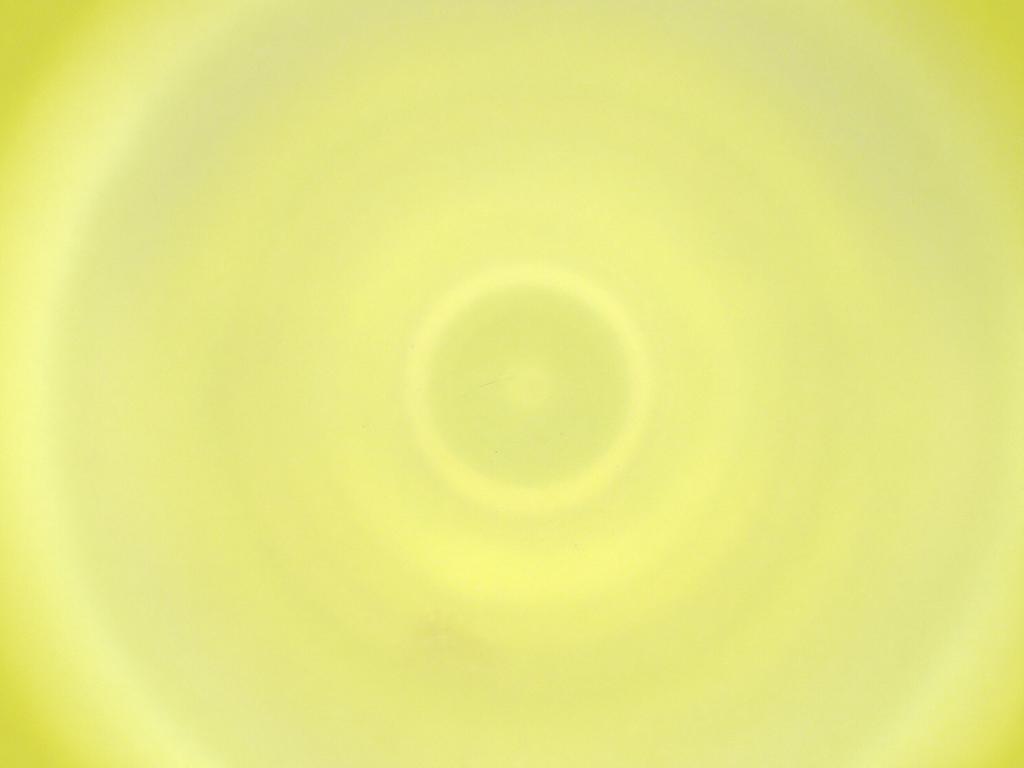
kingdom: Animalia
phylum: Arthropoda
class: Insecta
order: Diptera
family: Cecidomyiidae
